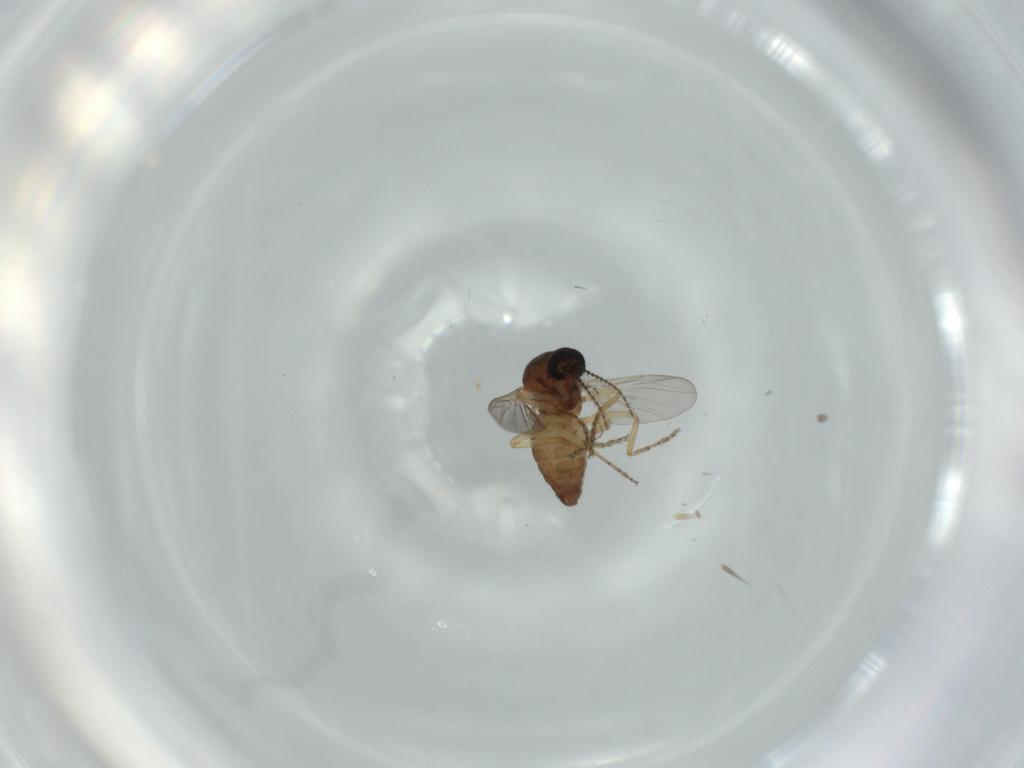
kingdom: Animalia
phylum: Arthropoda
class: Insecta
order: Diptera
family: Ceratopogonidae
